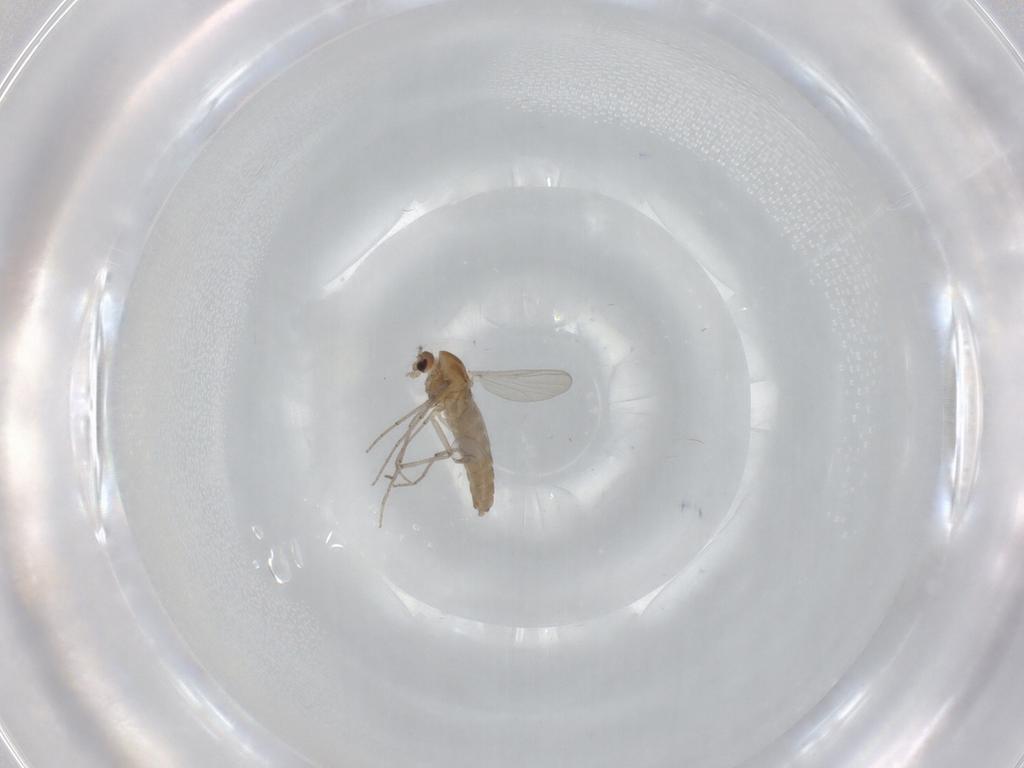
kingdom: Animalia
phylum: Arthropoda
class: Insecta
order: Diptera
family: Chironomidae
